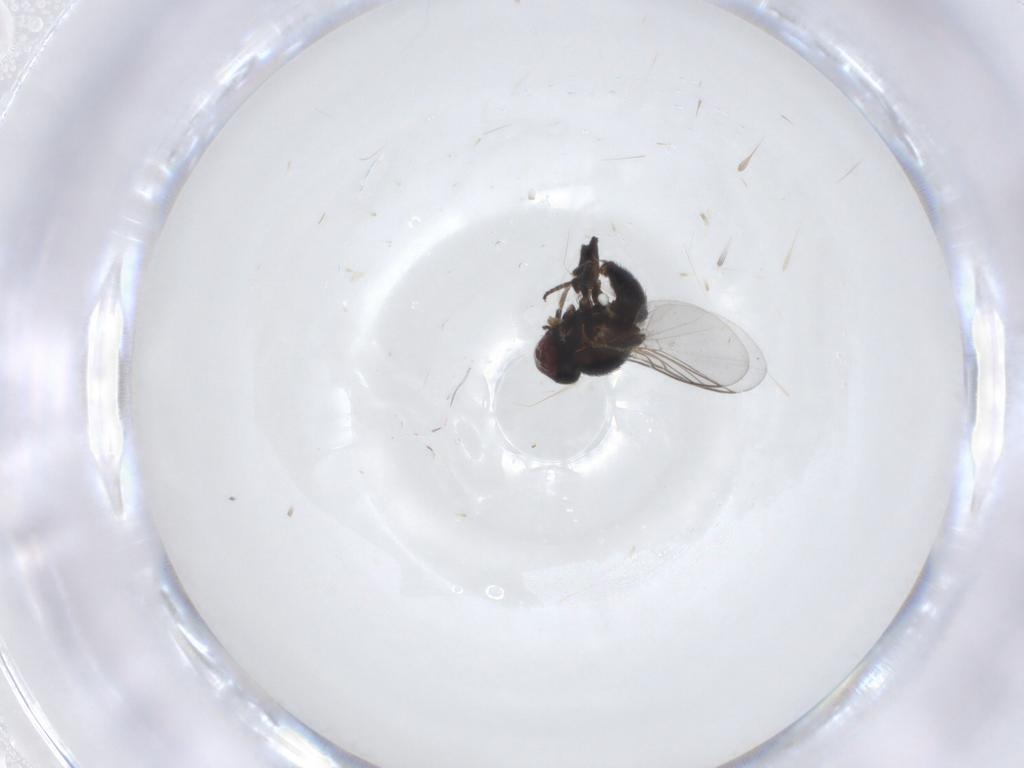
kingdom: Animalia
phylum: Arthropoda
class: Insecta
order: Diptera
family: Agromyzidae
